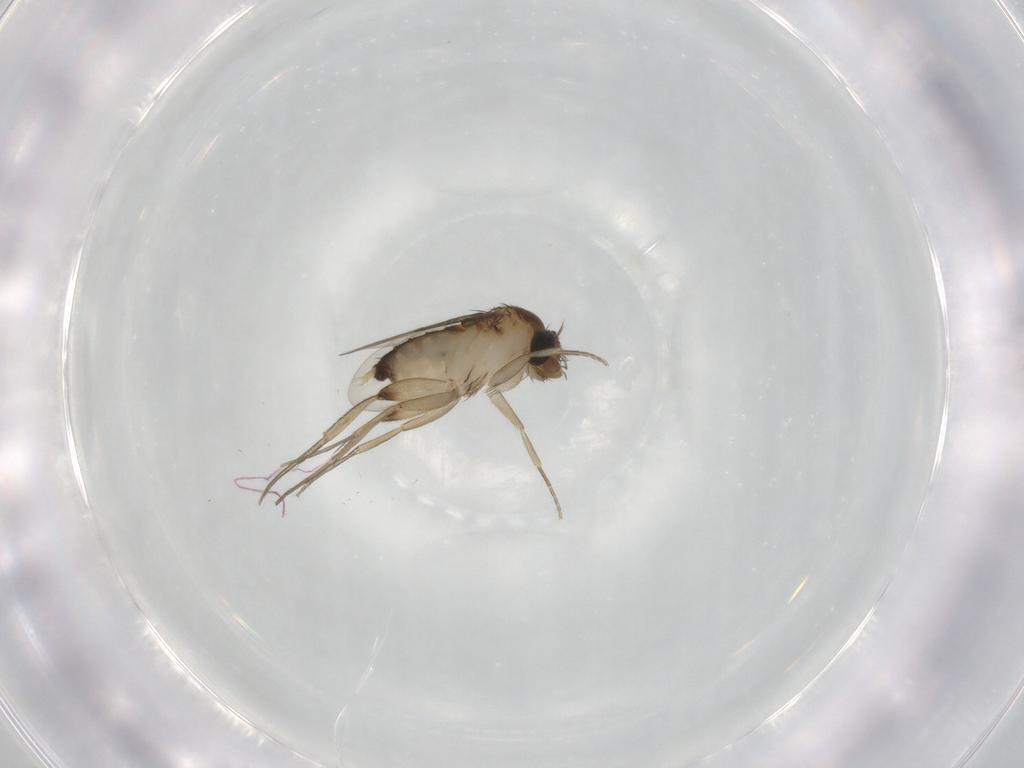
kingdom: Animalia
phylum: Arthropoda
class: Insecta
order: Diptera
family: Phoridae
